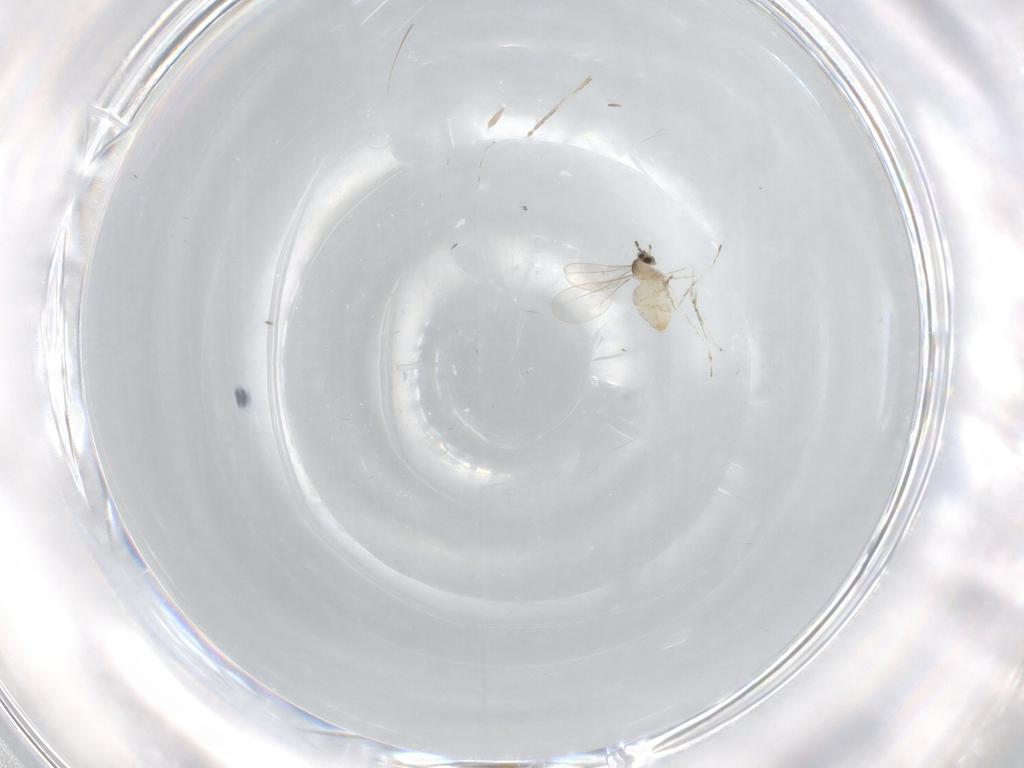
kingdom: Animalia
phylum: Arthropoda
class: Insecta
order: Diptera
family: Cecidomyiidae
